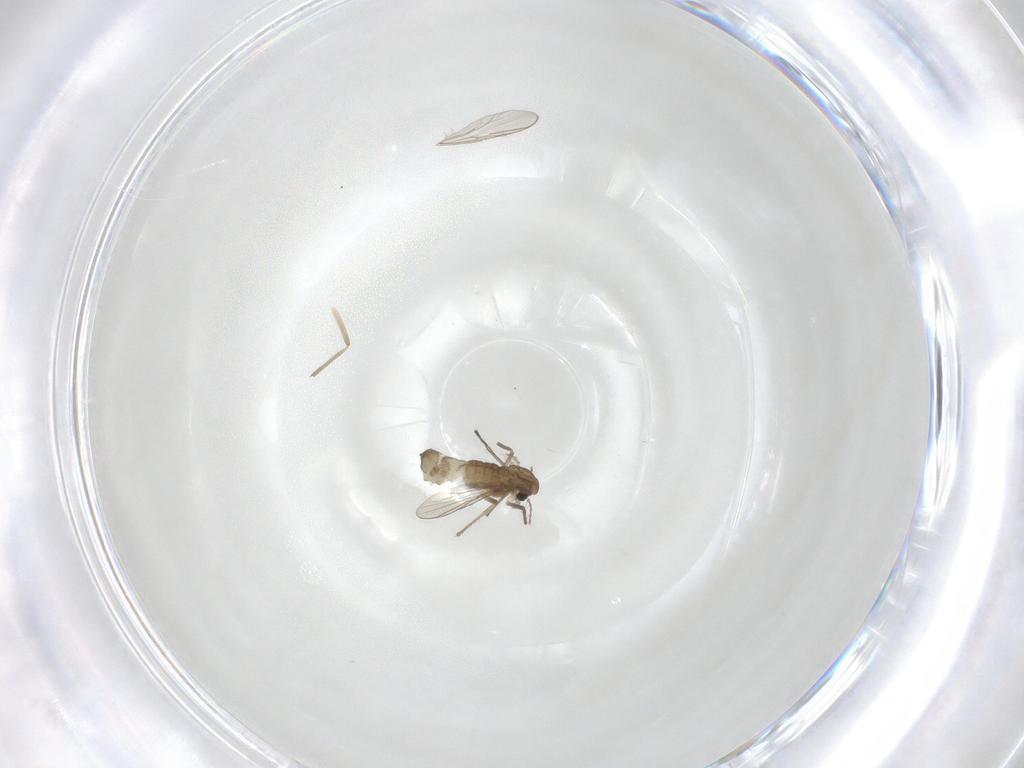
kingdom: Animalia
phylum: Arthropoda
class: Insecta
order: Diptera
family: Chironomidae
